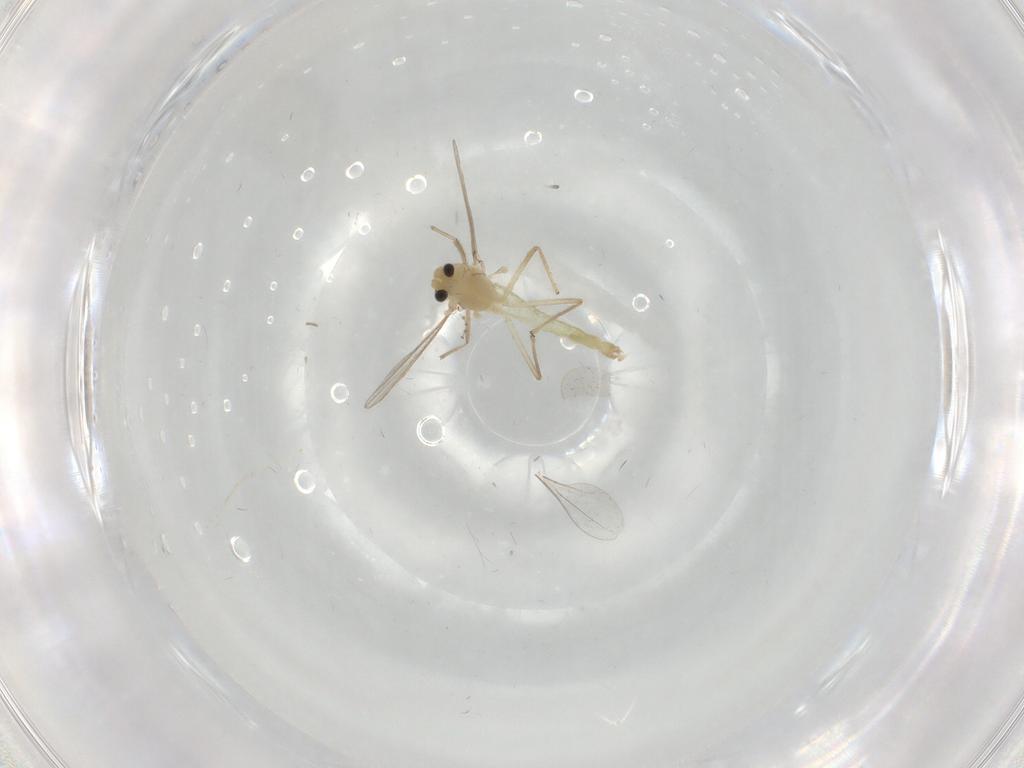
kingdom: Animalia
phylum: Arthropoda
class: Insecta
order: Diptera
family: Chironomidae
